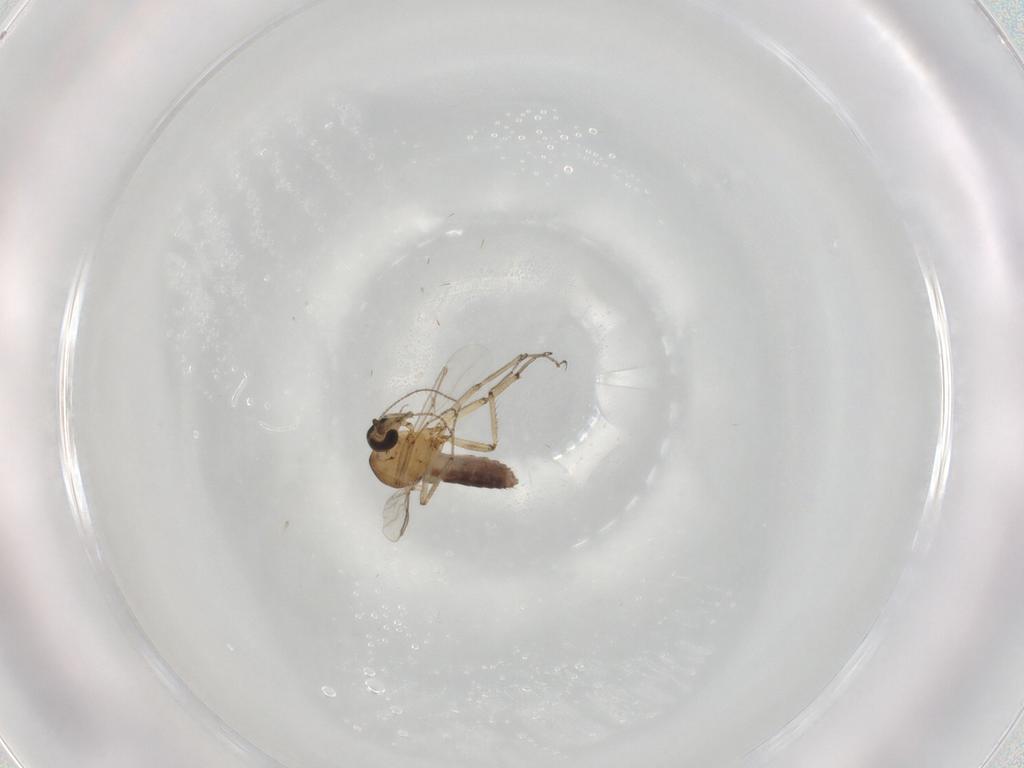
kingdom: Animalia
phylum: Arthropoda
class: Insecta
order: Diptera
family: Ceratopogonidae
